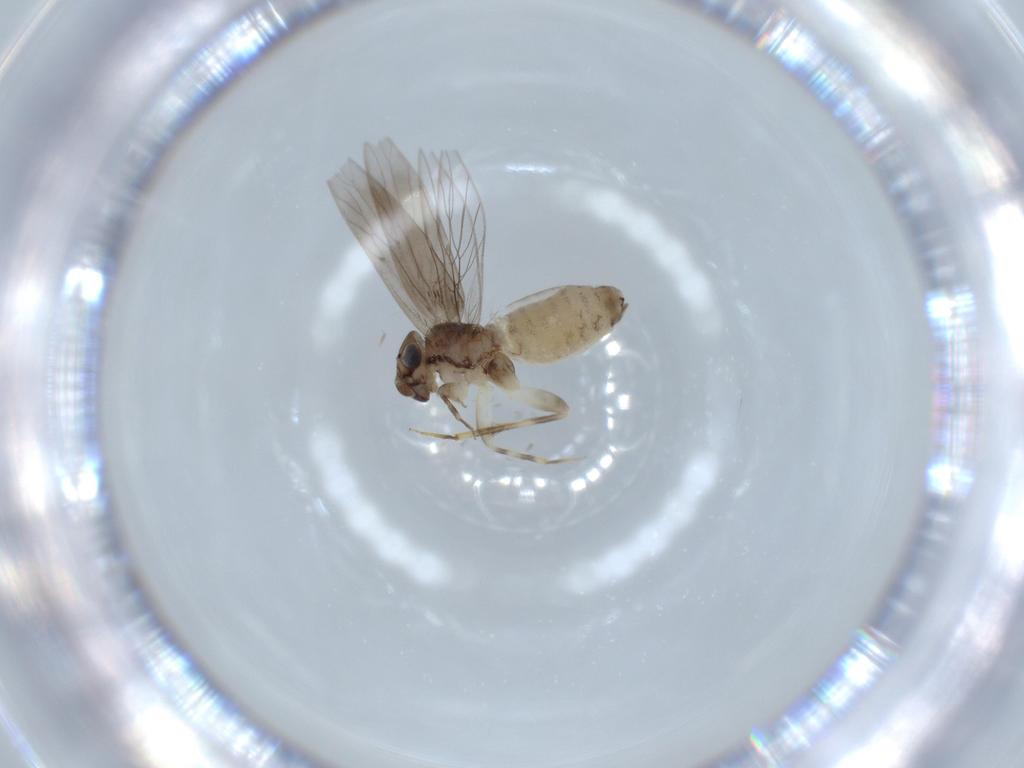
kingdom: Animalia
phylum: Arthropoda
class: Insecta
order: Psocodea
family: Lepidopsocidae
